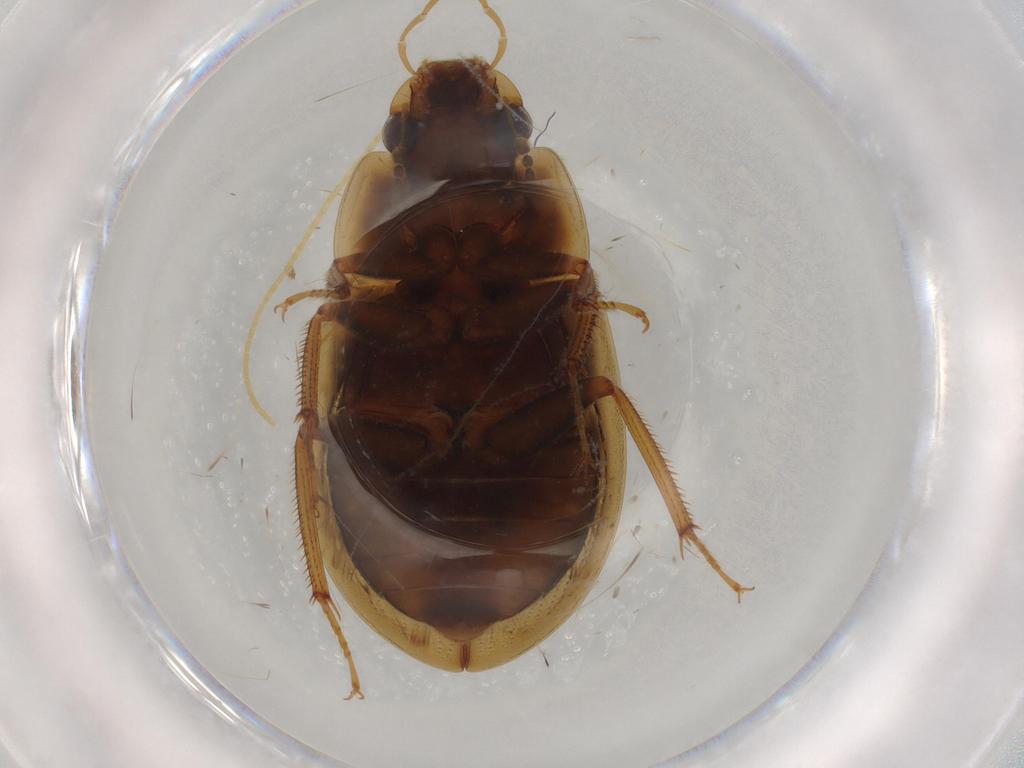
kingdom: Animalia
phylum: Arthropoda
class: Insecta
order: Coleoptera
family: Hydrophilidae
